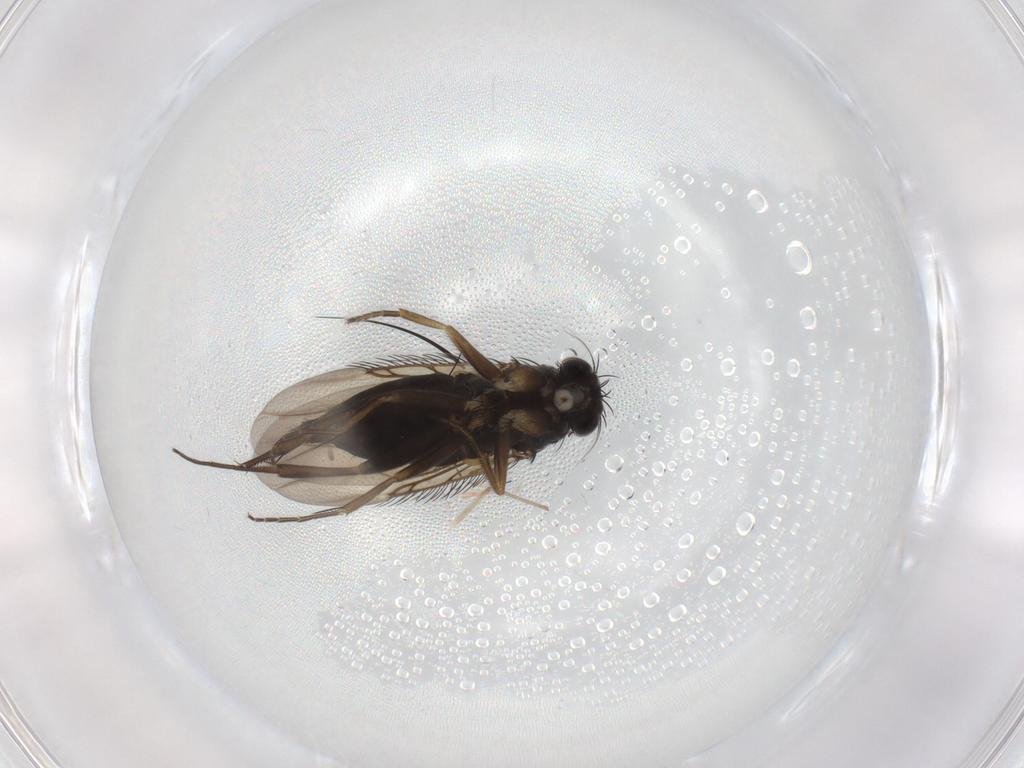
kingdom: Animalia
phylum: Arthropoda
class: Insecta
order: Diptera
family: Phoridae
